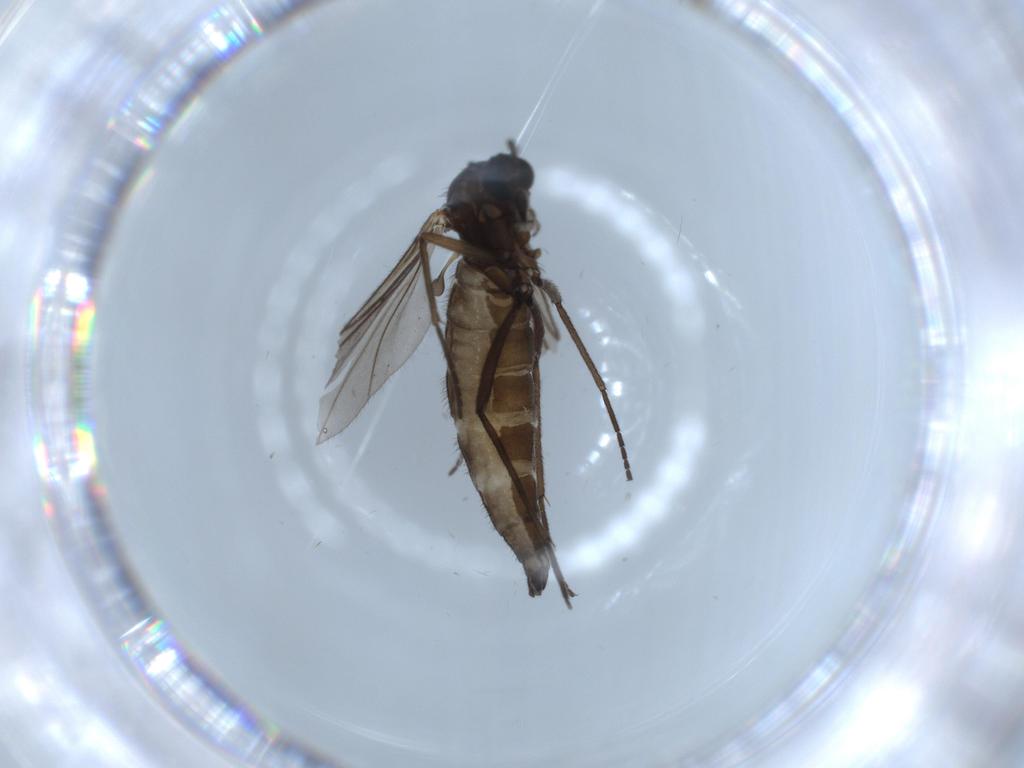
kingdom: Animalia
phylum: Arthropoda
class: Insecta
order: Diptera
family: Sciaridae
